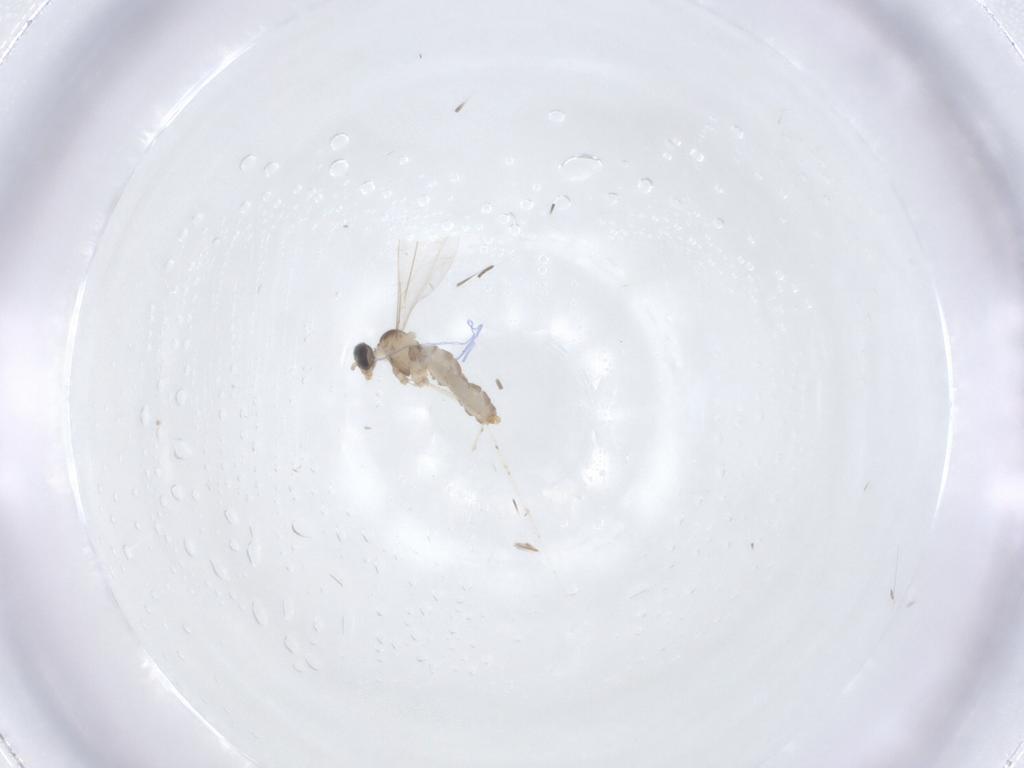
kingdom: Animalia
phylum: Arthropoda
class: Insecta
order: Diptera
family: Sciaridae
